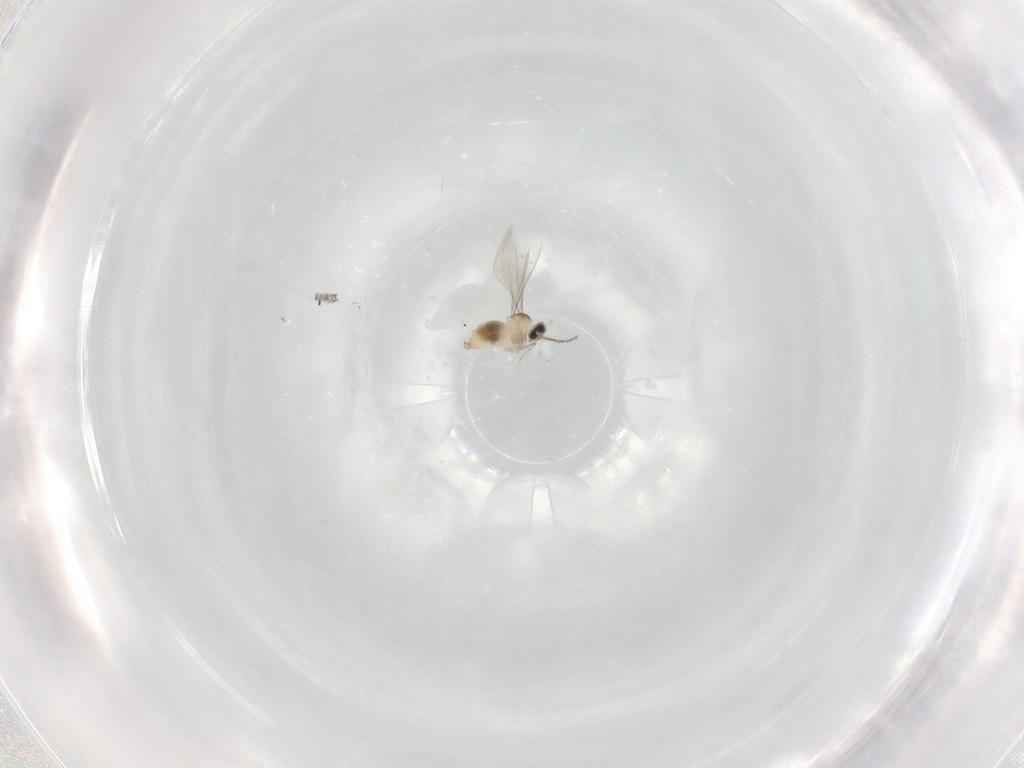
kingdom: Animalia
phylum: Arthropoda
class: Insecta
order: Diptera
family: Cecidomyiidae
